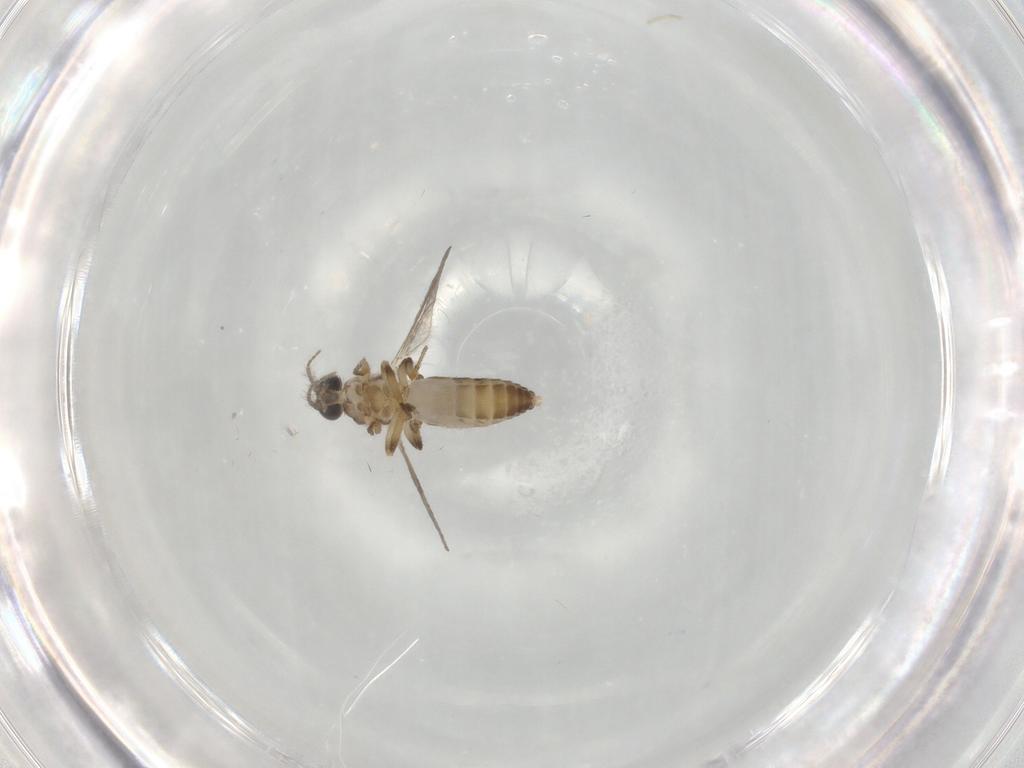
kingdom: Animalia
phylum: Arthropoda
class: Insecta
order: Diptera
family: Ceratopogonidae
